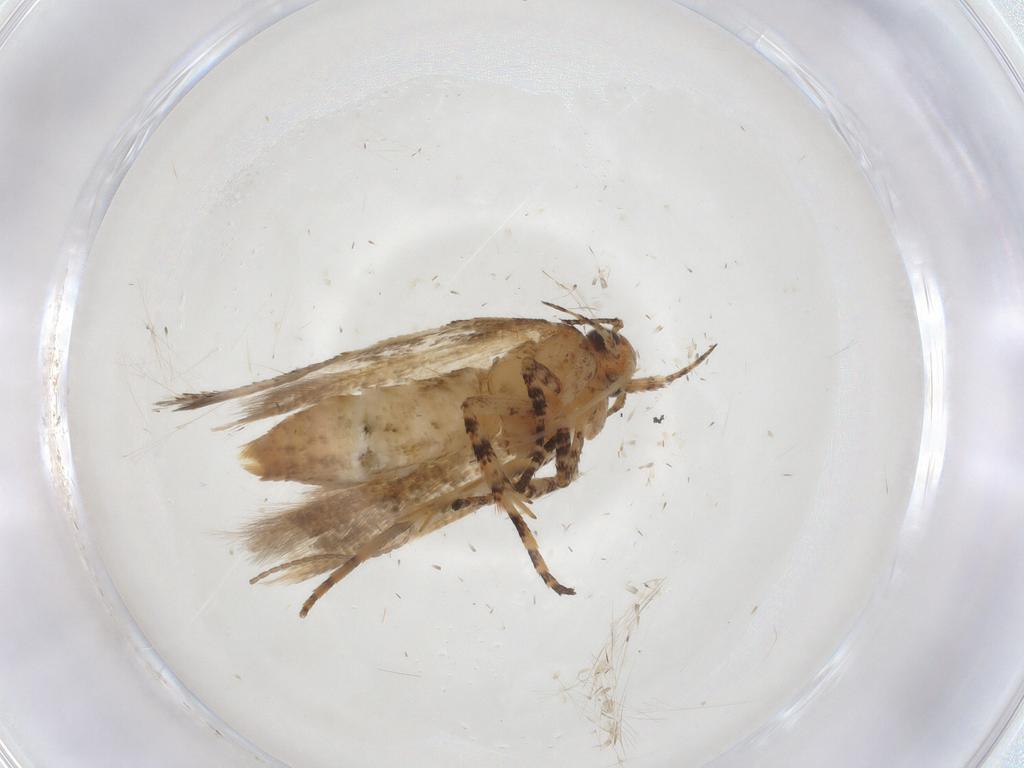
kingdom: Animalia
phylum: Arthropoda
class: Insecta
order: Lepidoptera
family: Gelechiidae
